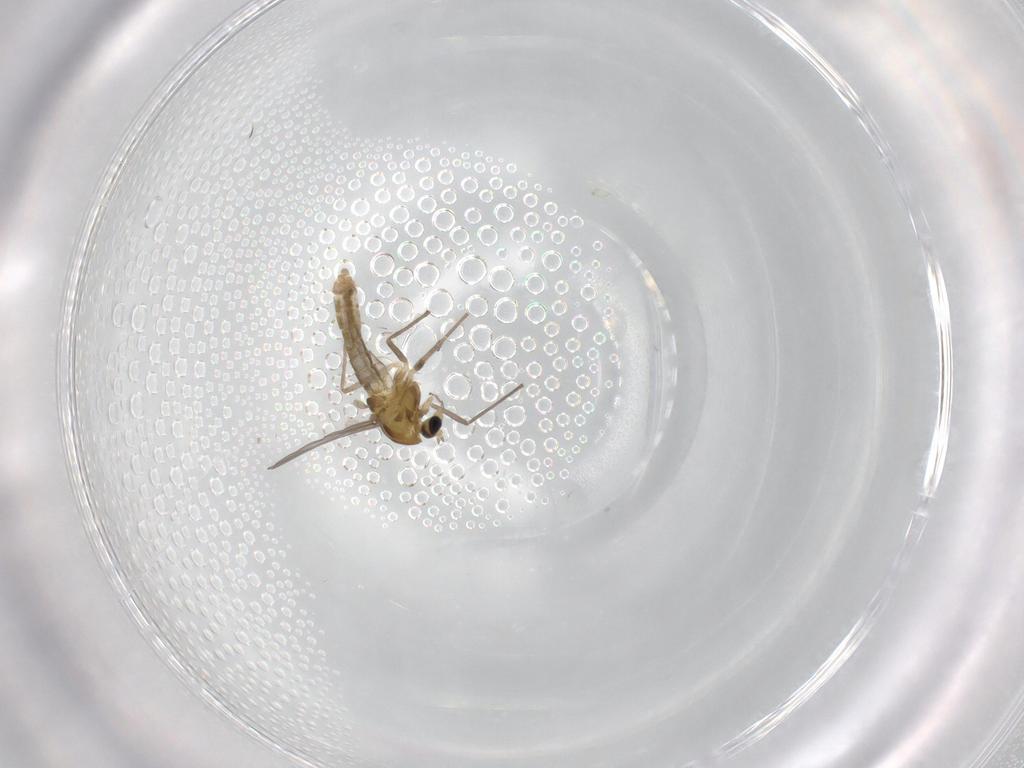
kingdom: Animalia
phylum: Arthropoda
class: Insecta
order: Diptera
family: Chironomidae
